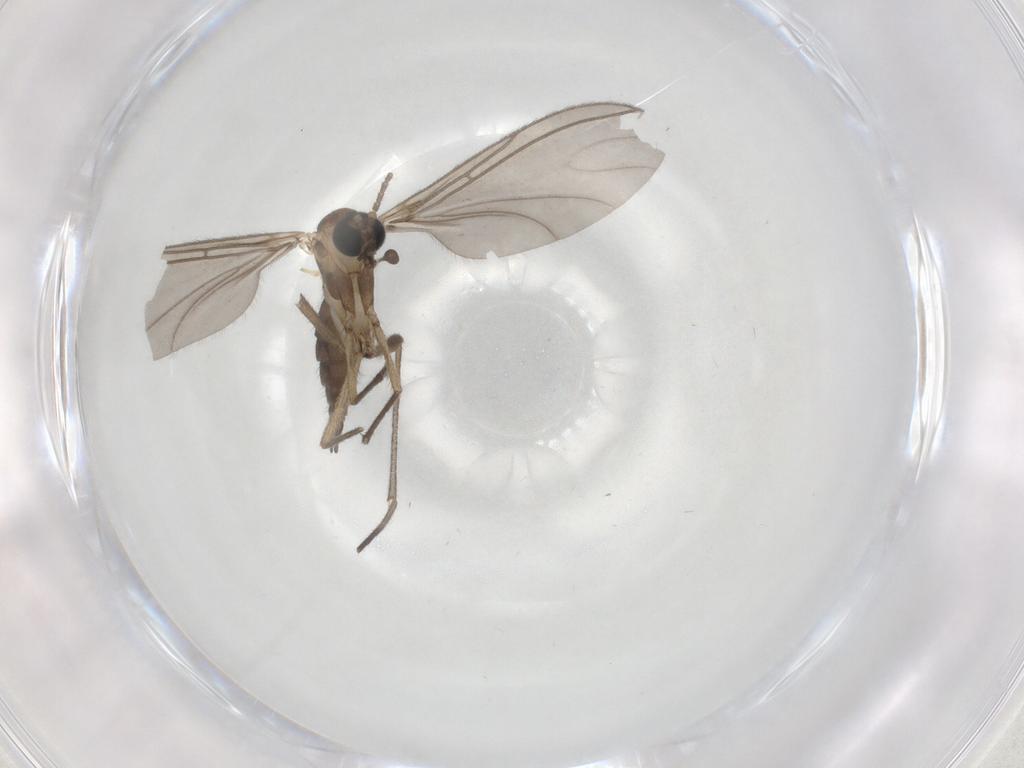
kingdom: Animalia
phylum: Arthropoda
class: Insecta
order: Diptera
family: Sciaridae
